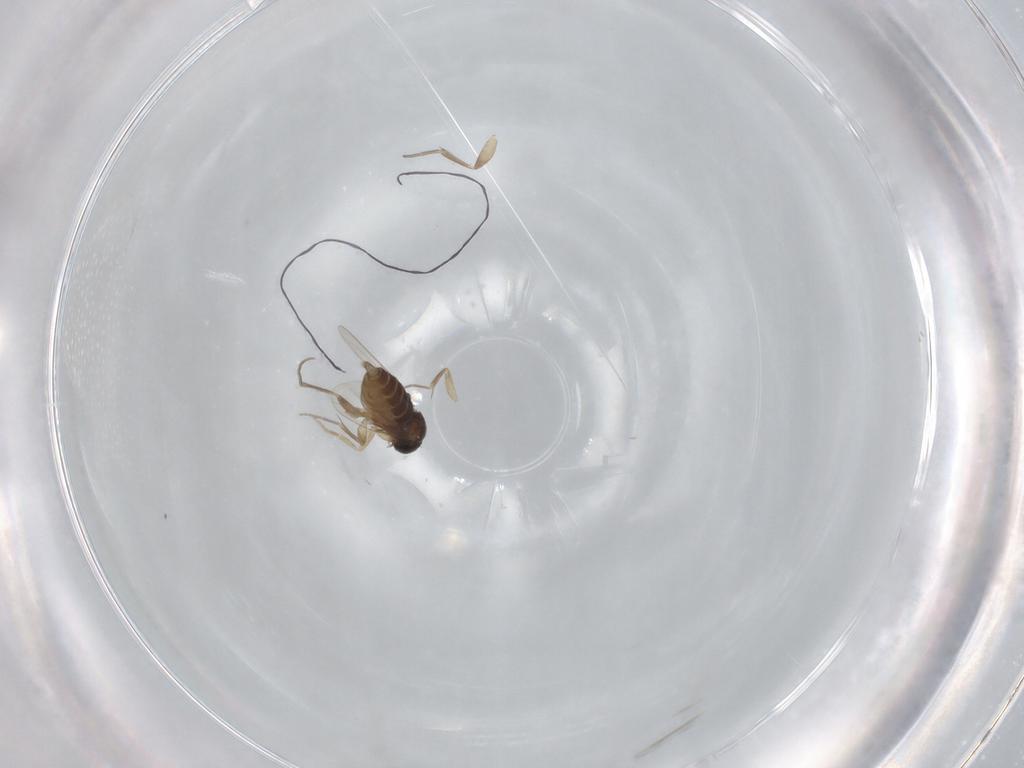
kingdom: Animalia
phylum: Arthropoda
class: Insecta
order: Diptera
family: Phoridae
